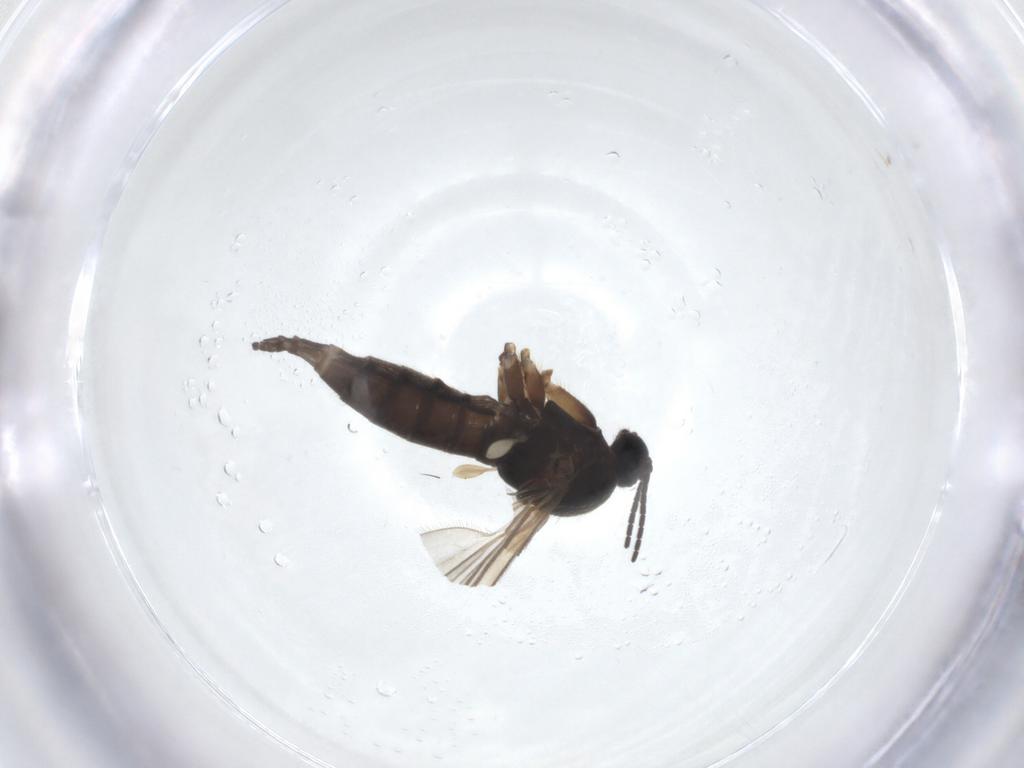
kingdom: Animalia
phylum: Arthropoda
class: Insecta
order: Diptera
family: Sciaridae
